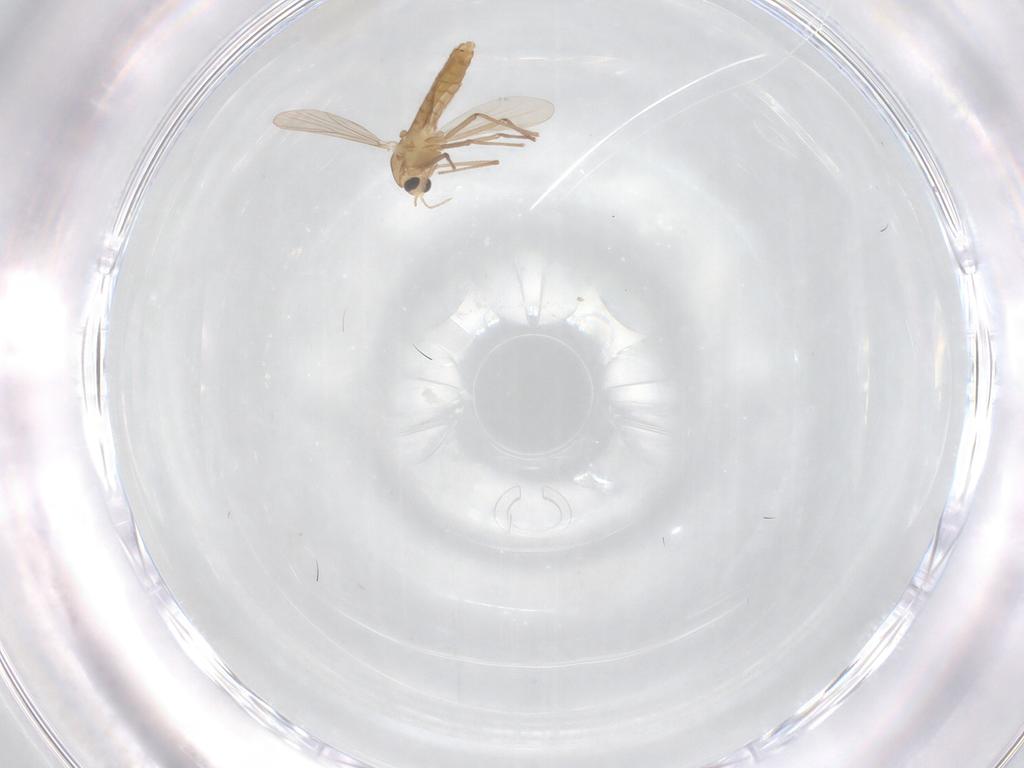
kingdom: Animalia
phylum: Arthropoda
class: Insecta
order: Diptera
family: Chironomidae
